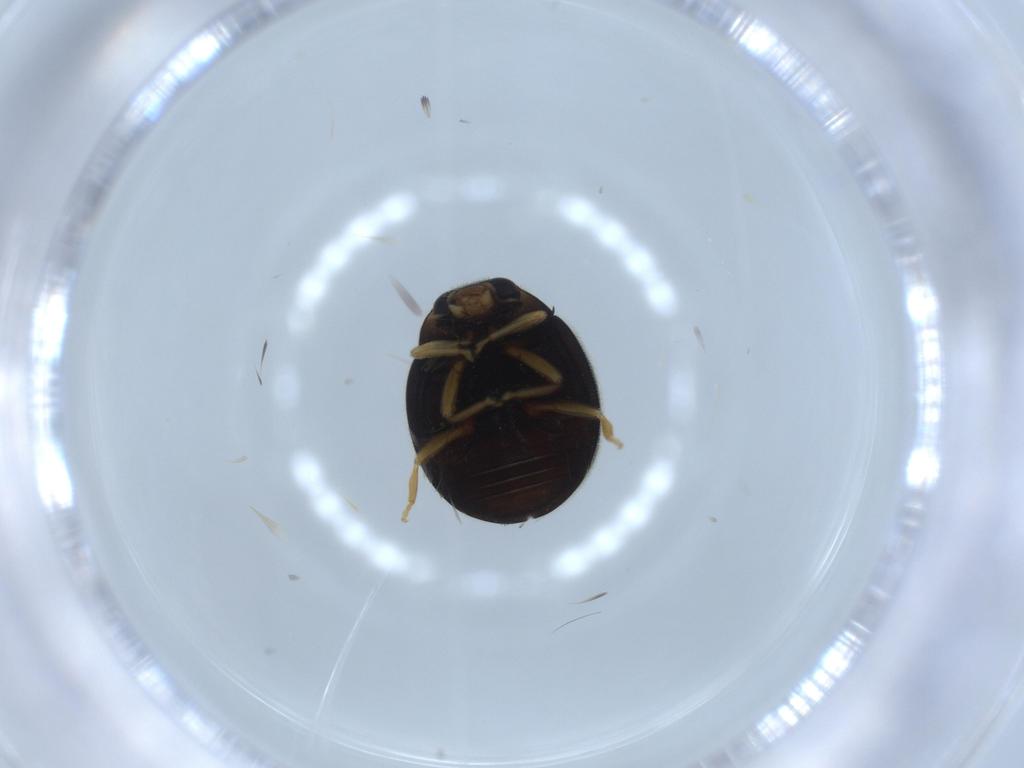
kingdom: Animalia
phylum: Arthropoda
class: Insecta
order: Coleoptera
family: Coccinellidae
